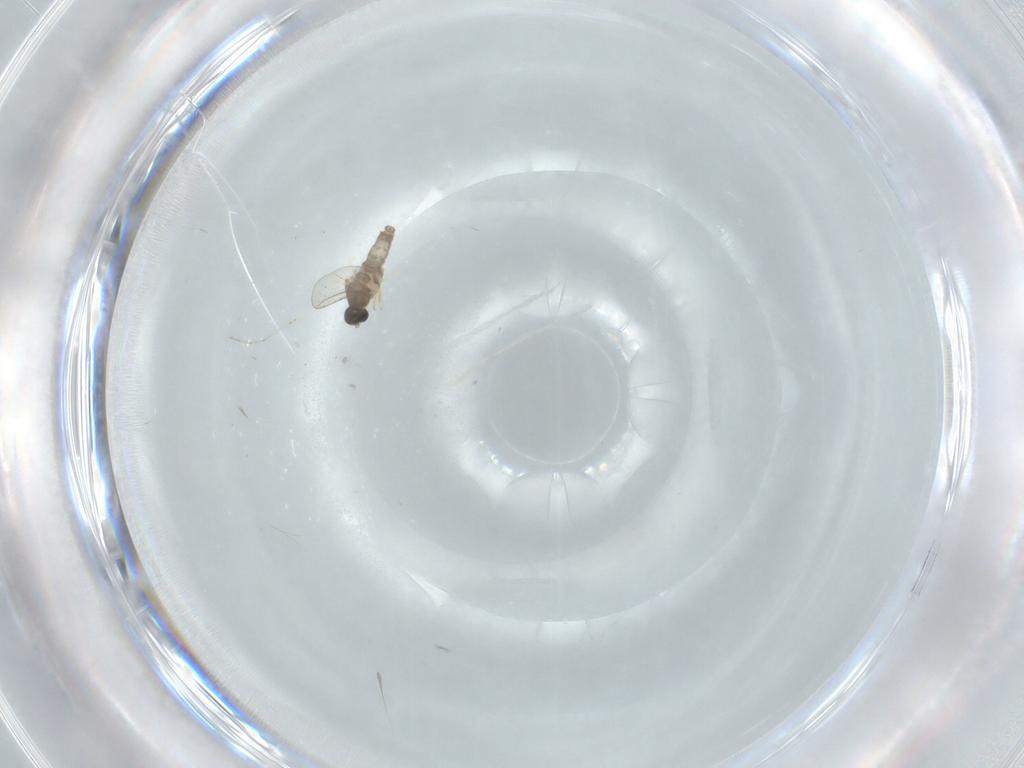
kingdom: Animalia
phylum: Arthropoda
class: Insecta
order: Diptera
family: Cecidomyiidae
